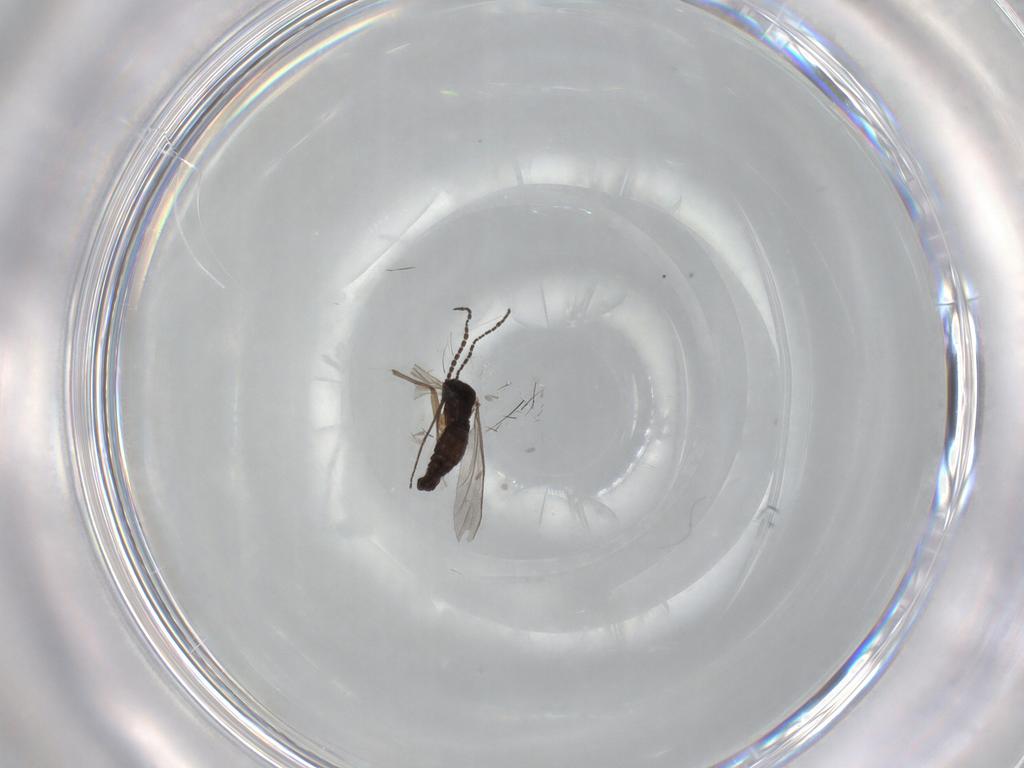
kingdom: Animalia
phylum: Arthropoda
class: Insecta
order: Diptera
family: Sciaridae
